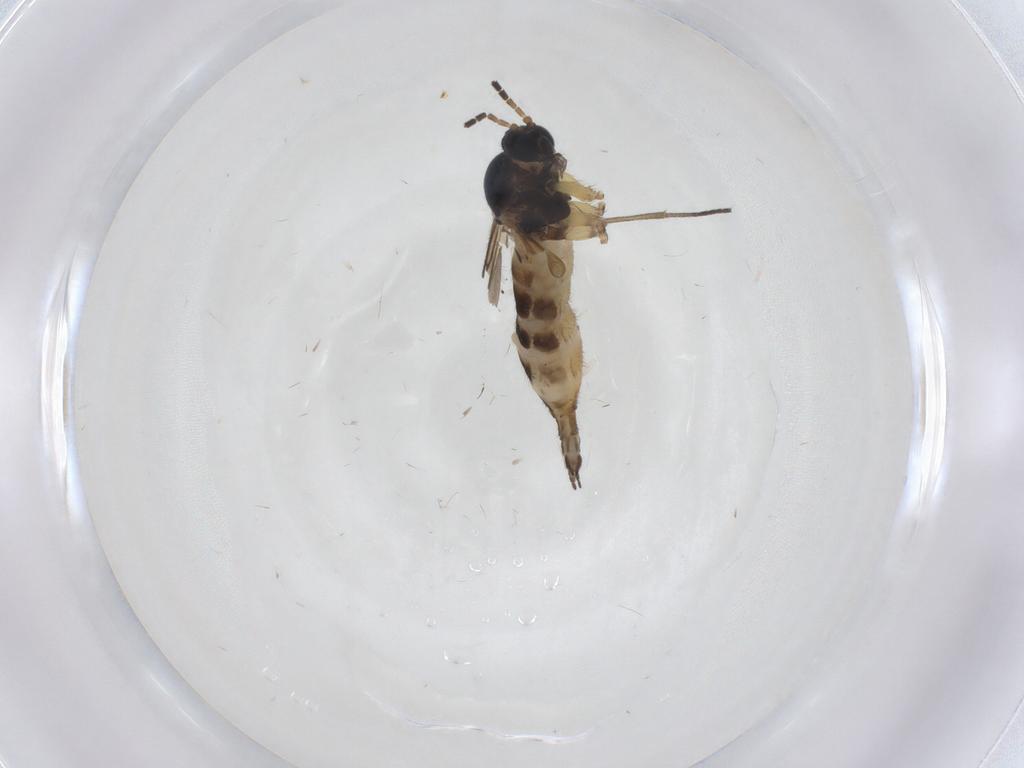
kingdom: Animalia
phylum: Arthropoda
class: Insecta
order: Diptera
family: Sciaridae
